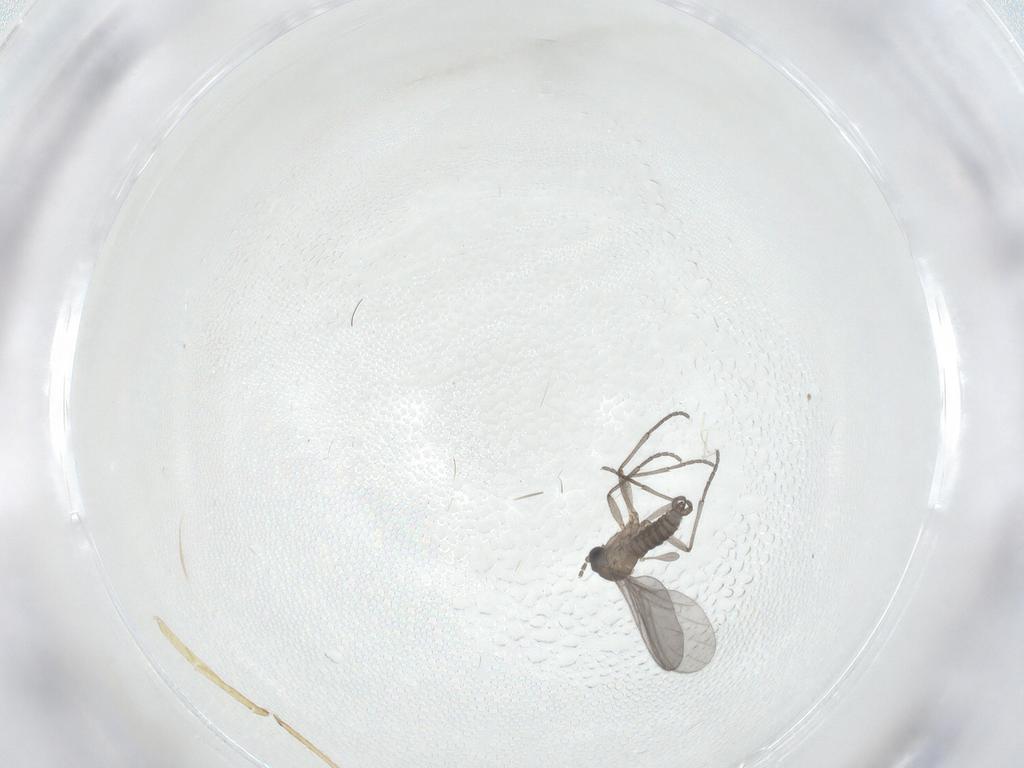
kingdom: Animalia
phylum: Arthropoda
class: Insecta
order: Diptera
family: Sciaridae
